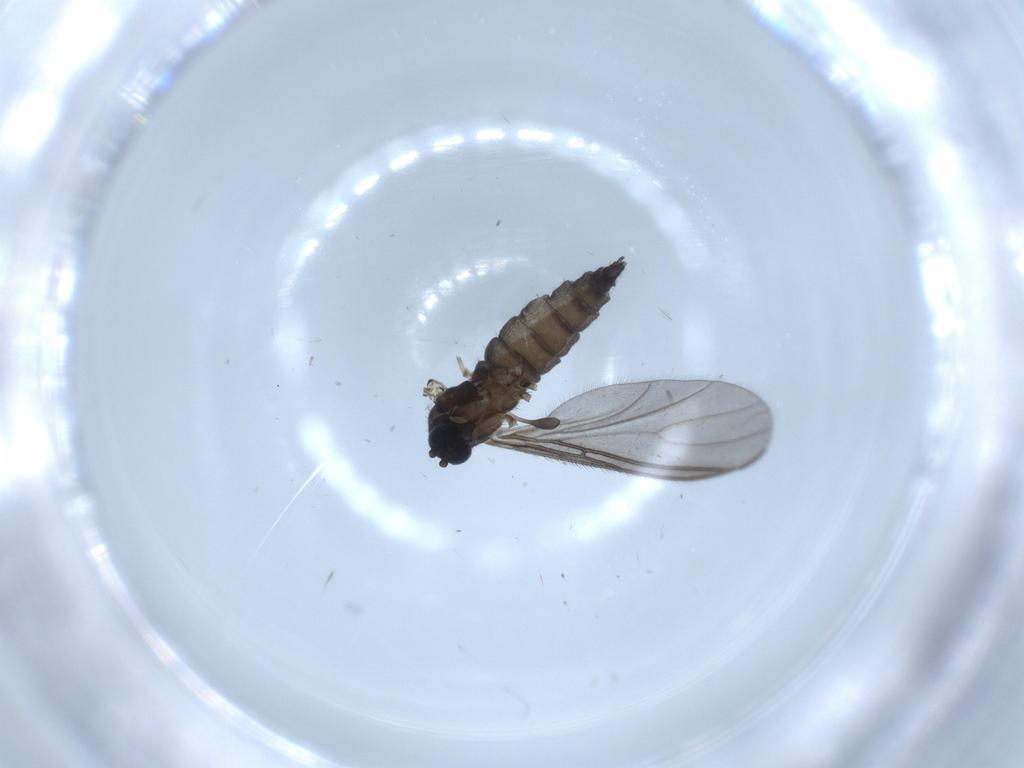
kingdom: Animalia
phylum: Arthropoda
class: Insecta
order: Diptera
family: Sciaridae
